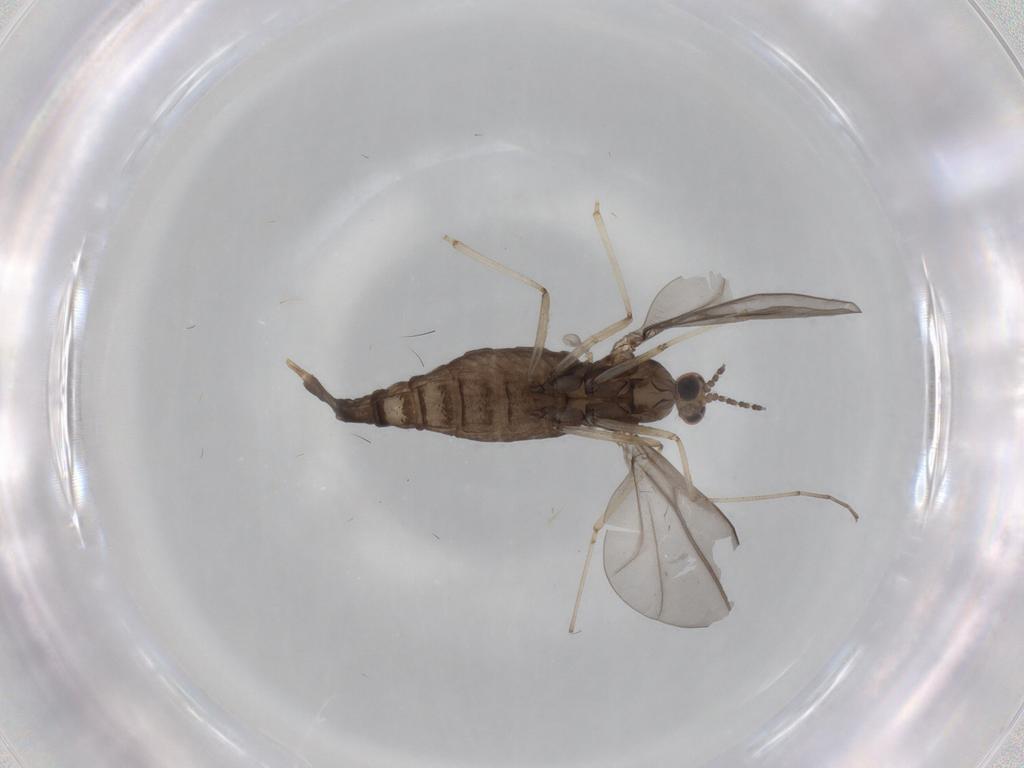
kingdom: Animalia
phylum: Arthropoda
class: Insecta
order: Diptera
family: Cecidomyiidae
